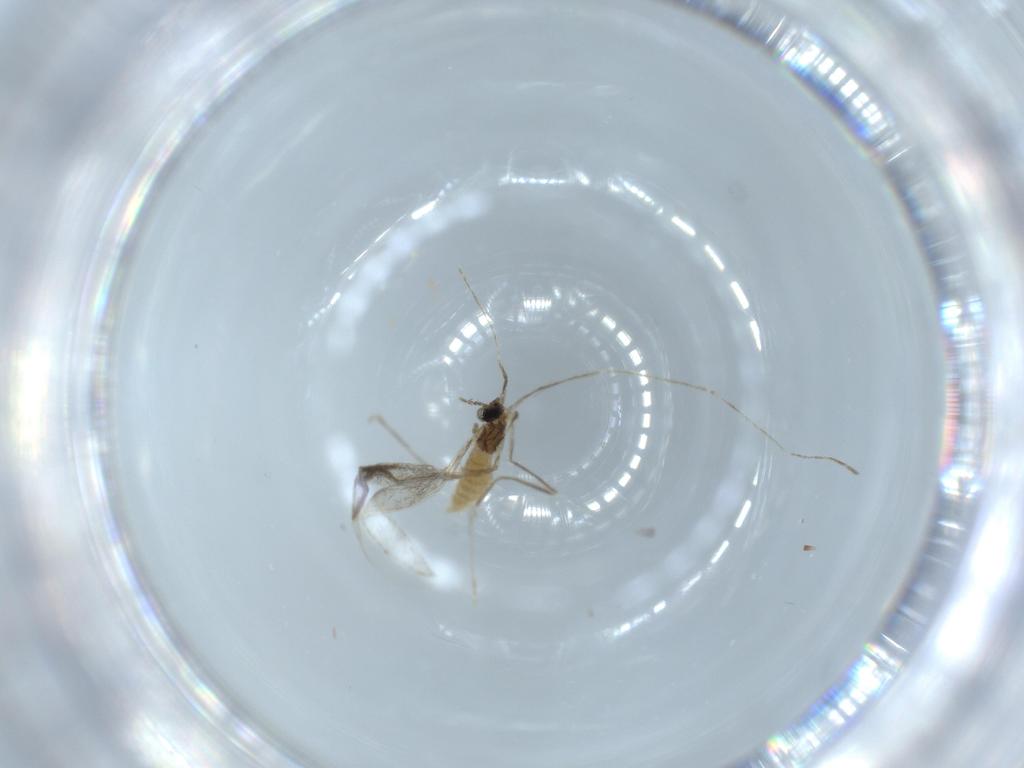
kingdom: Animalia
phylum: Arthropoda
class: Insecta
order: Diptera
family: Cecidomyiidae
